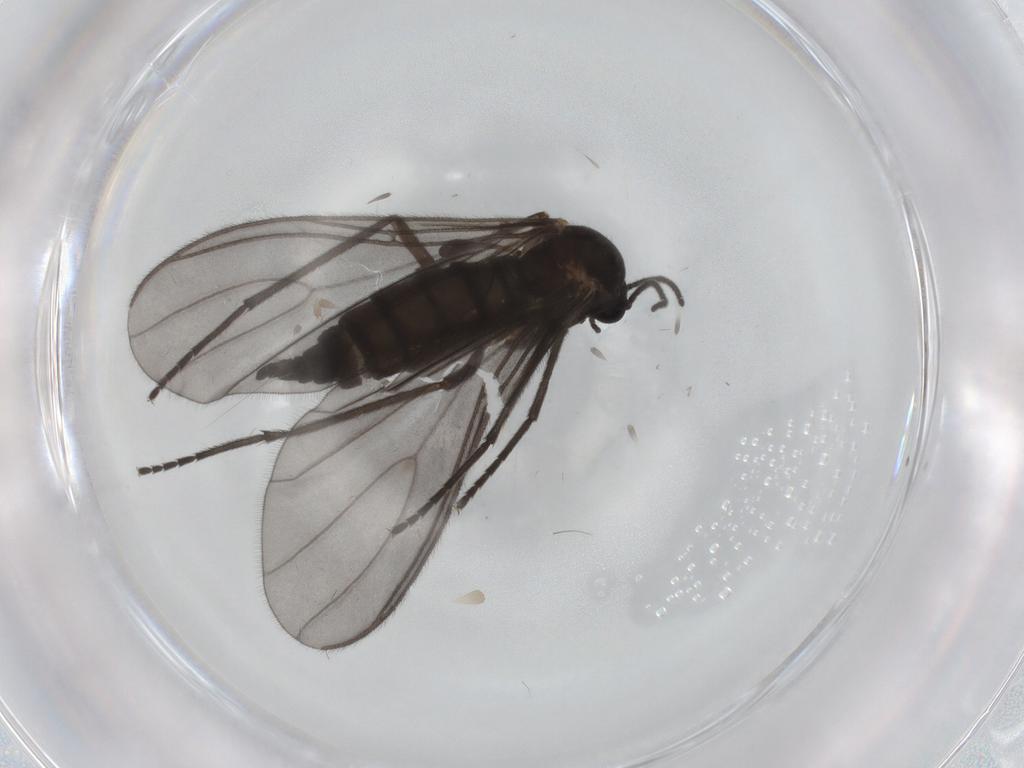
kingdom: Animalia
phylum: Arthropoda
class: Insecta
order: Diptera
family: Sciaridae
